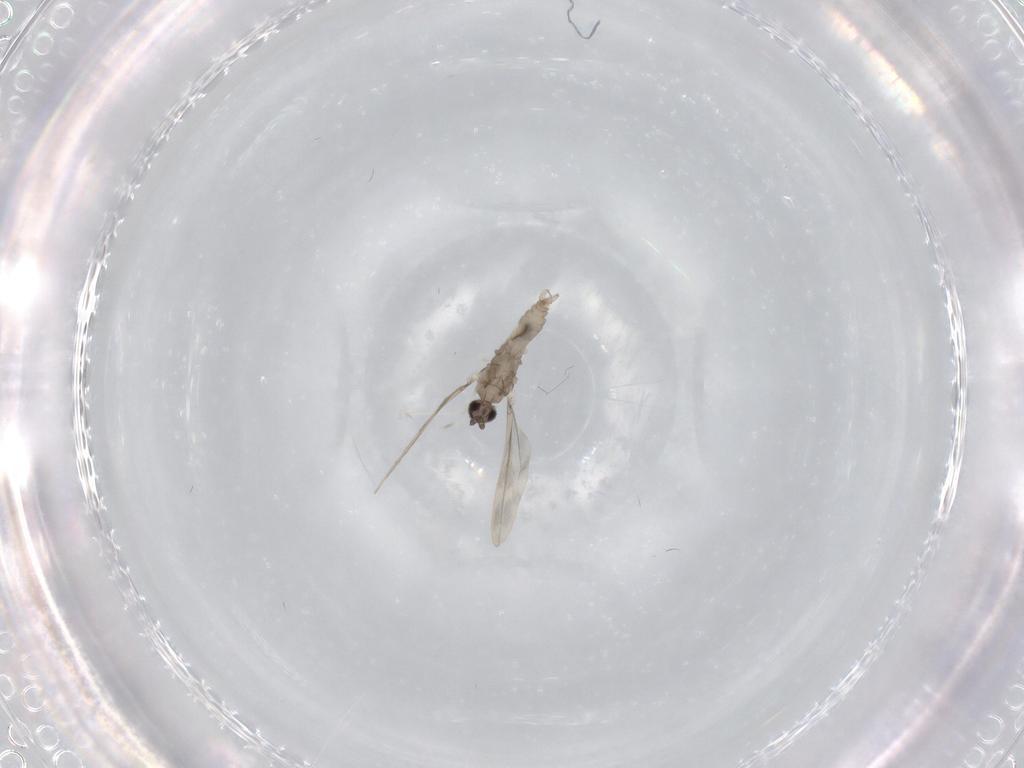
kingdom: Animalia
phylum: Arthropoda
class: Insecta
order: Diptera
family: Cecidomyiidae
